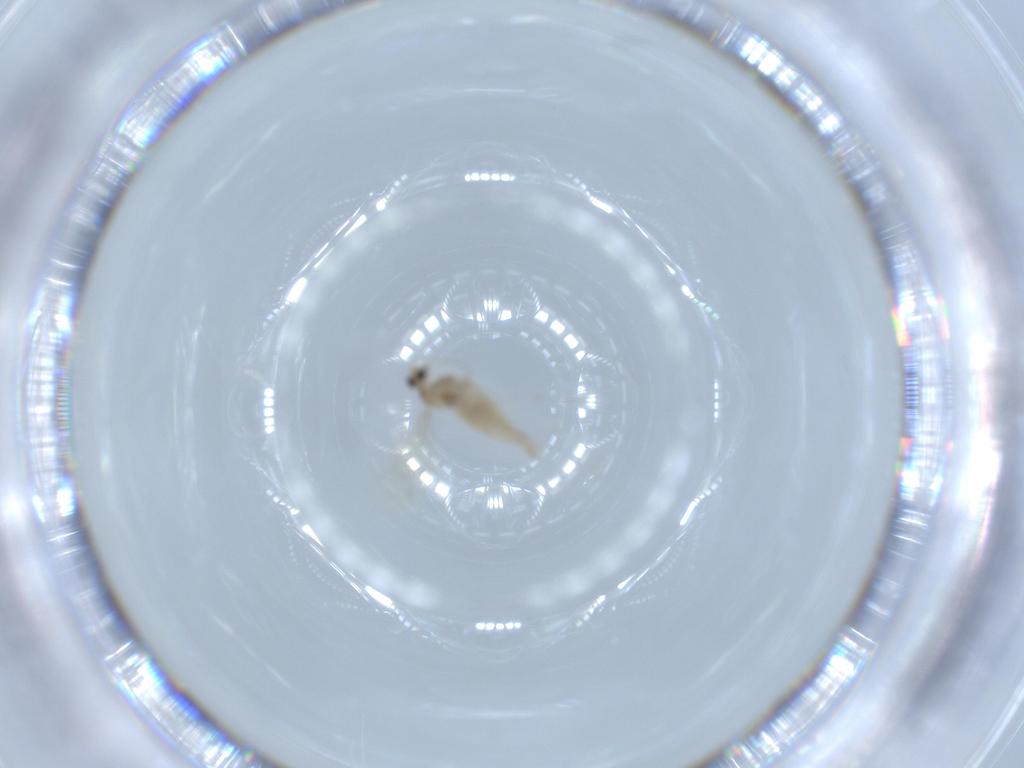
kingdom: Animalia
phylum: Arthropoda
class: Insecta
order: Diptera
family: Cecidomyiidae
